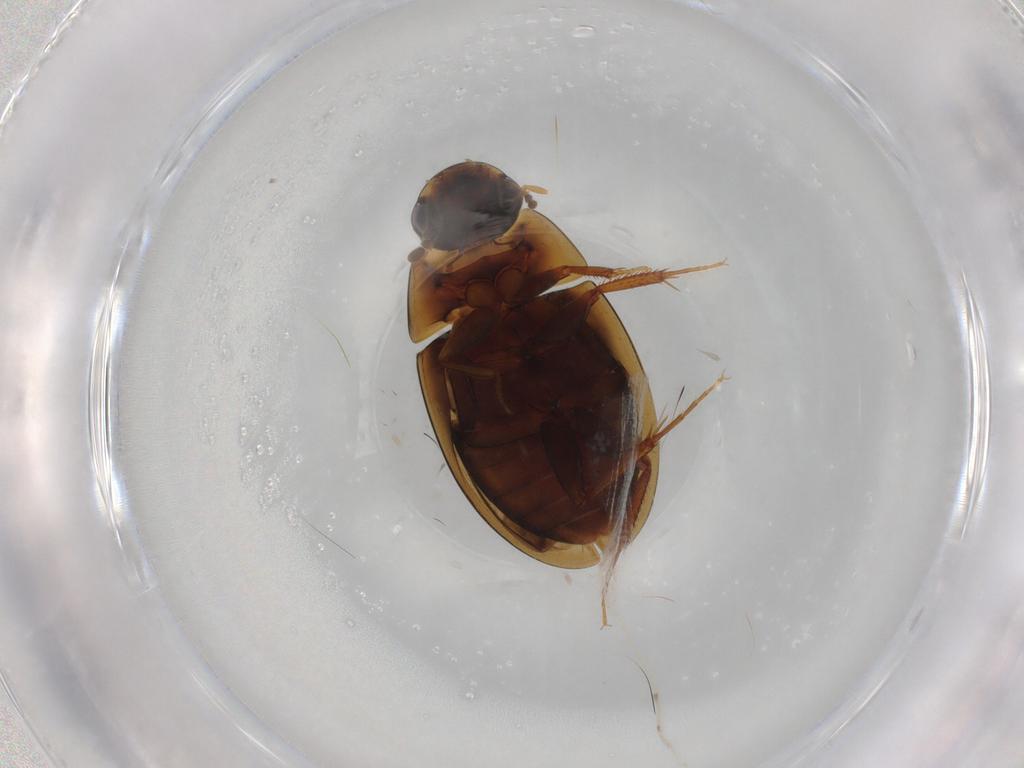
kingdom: Animalia
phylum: Arthropoda
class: Insecta
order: Coleoptera
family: Hydrophilidae
